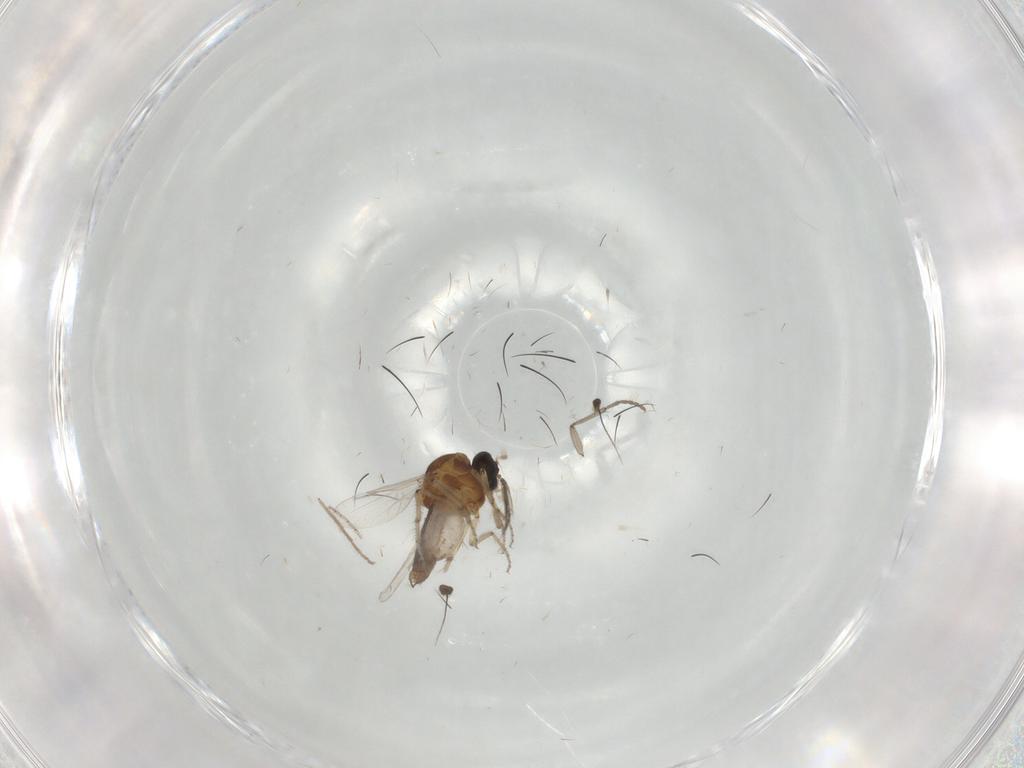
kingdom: Animalia
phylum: Arthropoda
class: Insecta
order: Diptera
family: Ceratopogonidae
